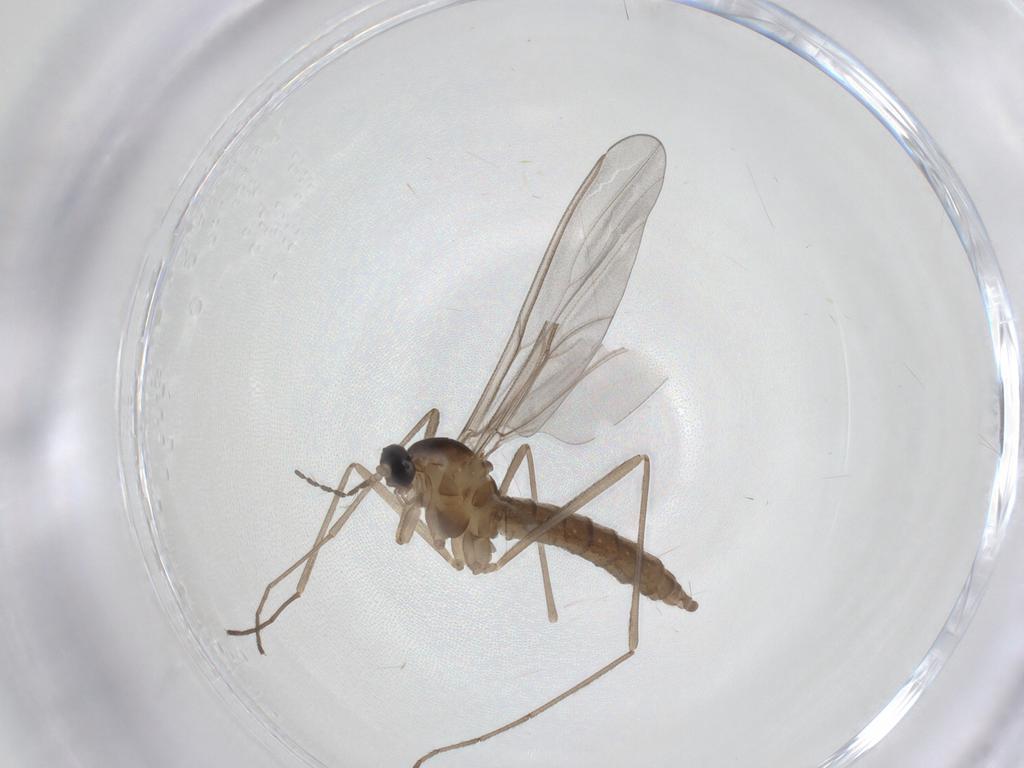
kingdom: Animalia
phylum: Arthropoda
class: Insecta
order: Diptera
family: Cecidomyiidae
